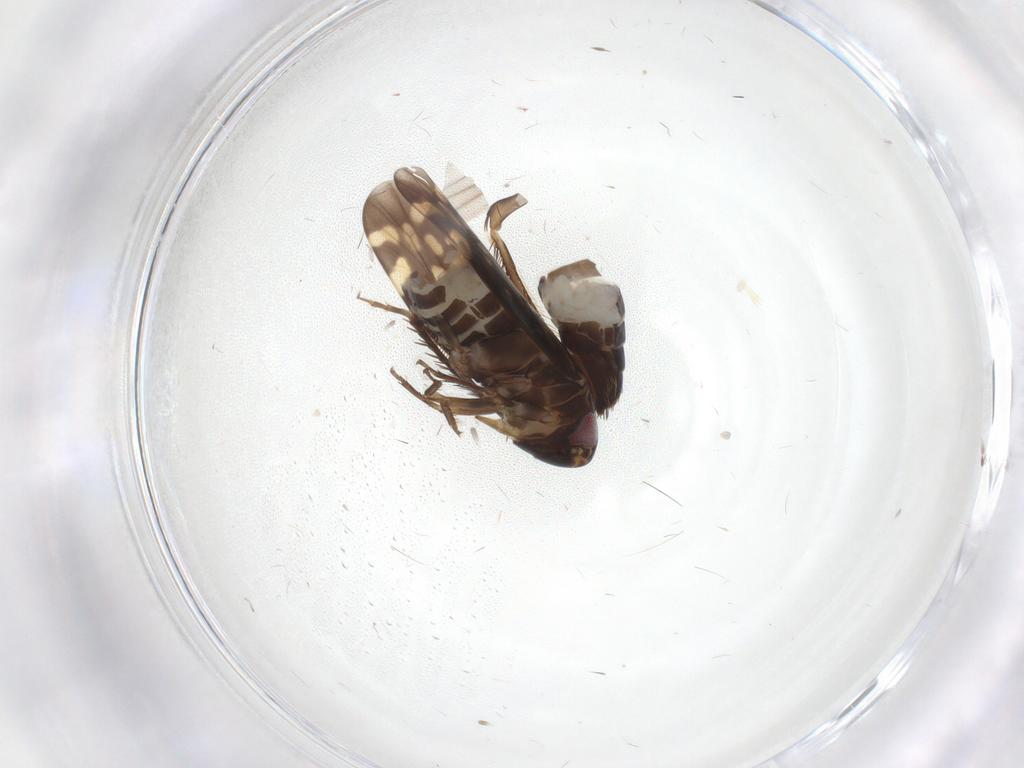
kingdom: Animalia
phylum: Arthropoda
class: Insecta
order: Hemiptera
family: Cicadellidae
